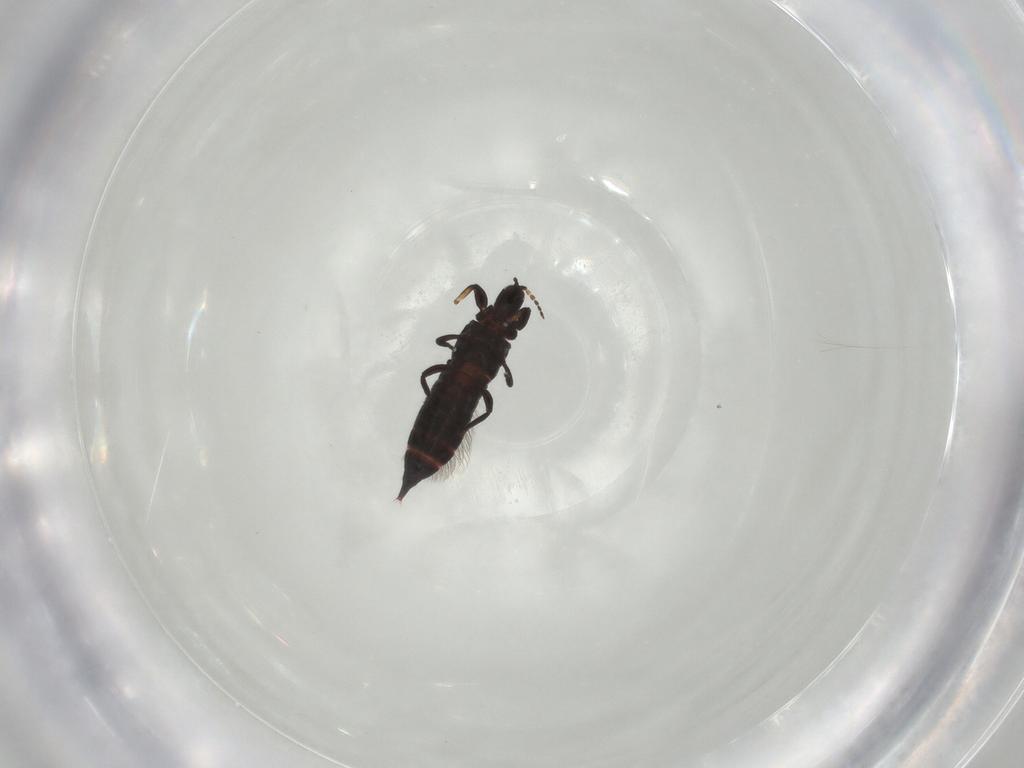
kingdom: Animalia
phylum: Arthropoda
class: Insecta
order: Thysanoptera
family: Phlaeothripidae
